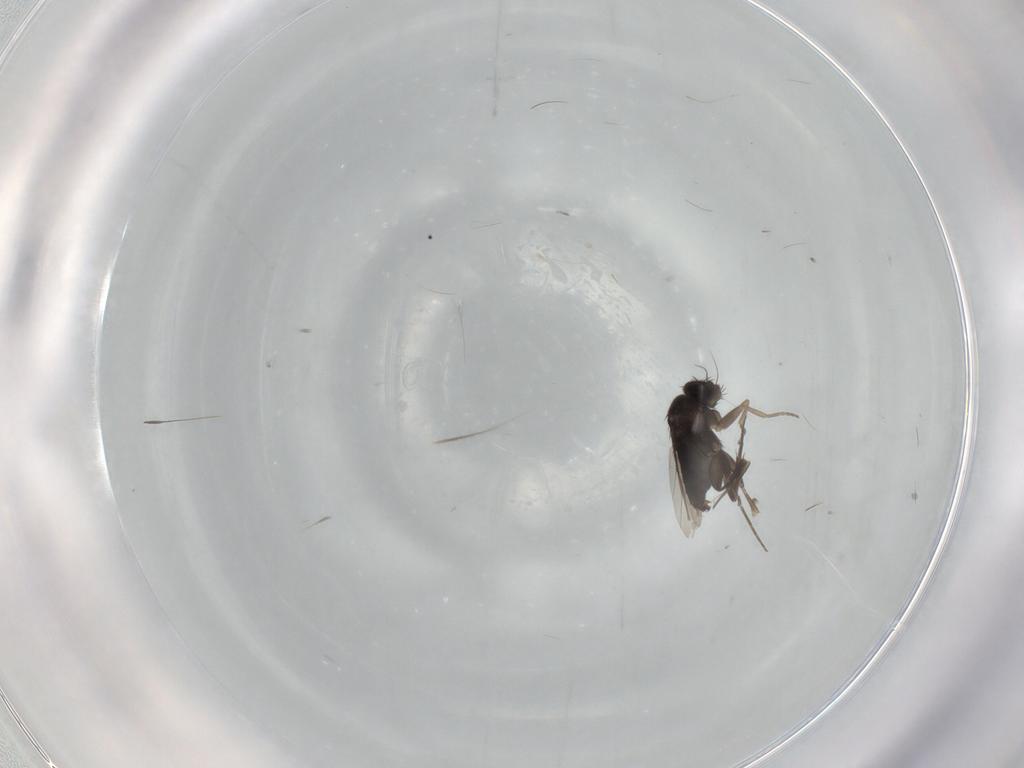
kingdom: Animalia
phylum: Arthropoda
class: Insecta
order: Diptera
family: Phoridae
